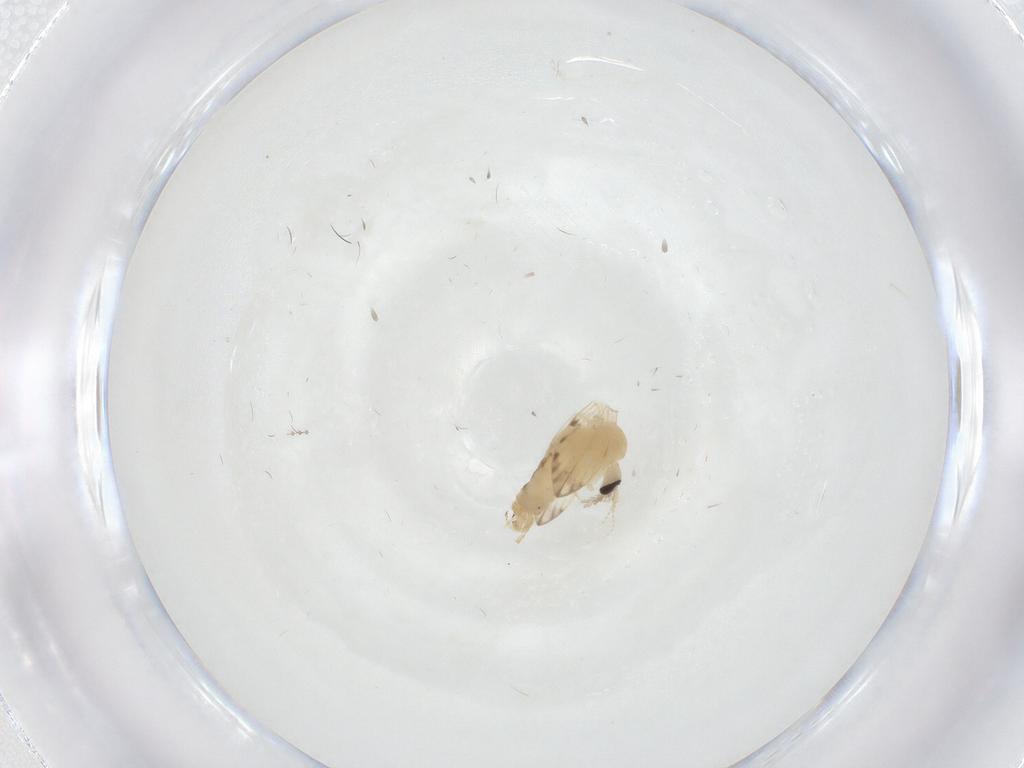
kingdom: Animalia
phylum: Arthropoda
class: Insecta
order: Diptera
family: Psychodidae
